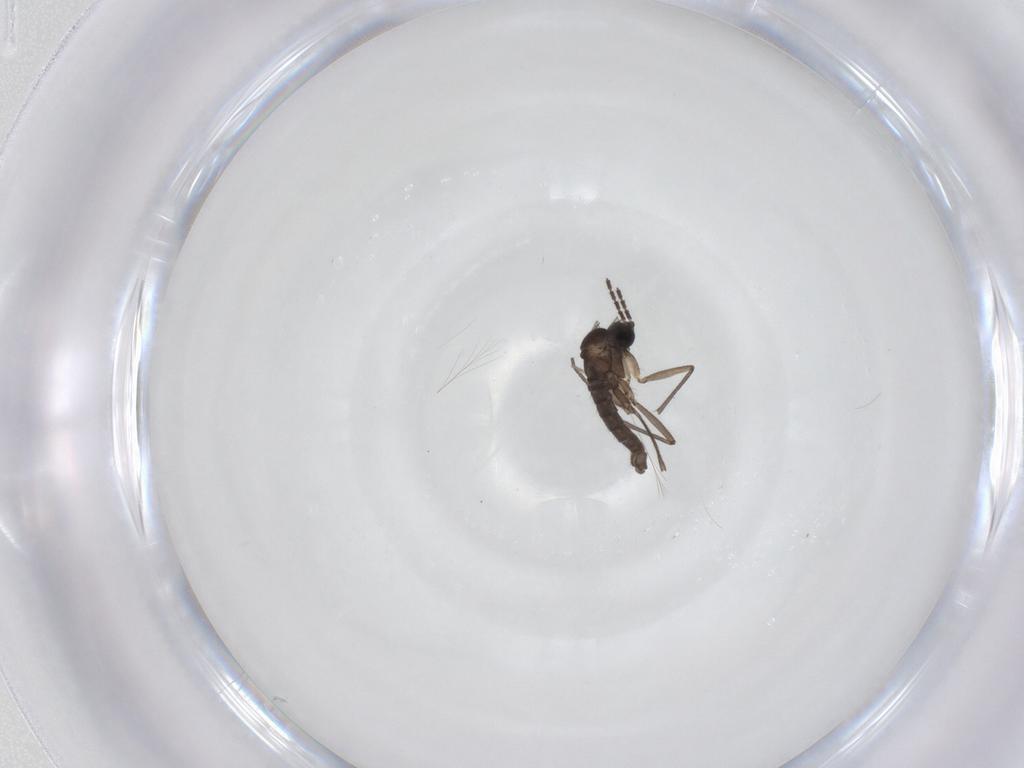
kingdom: Animalia
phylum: Arthropoda
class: Insecta
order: Diptera
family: Sciaridae
